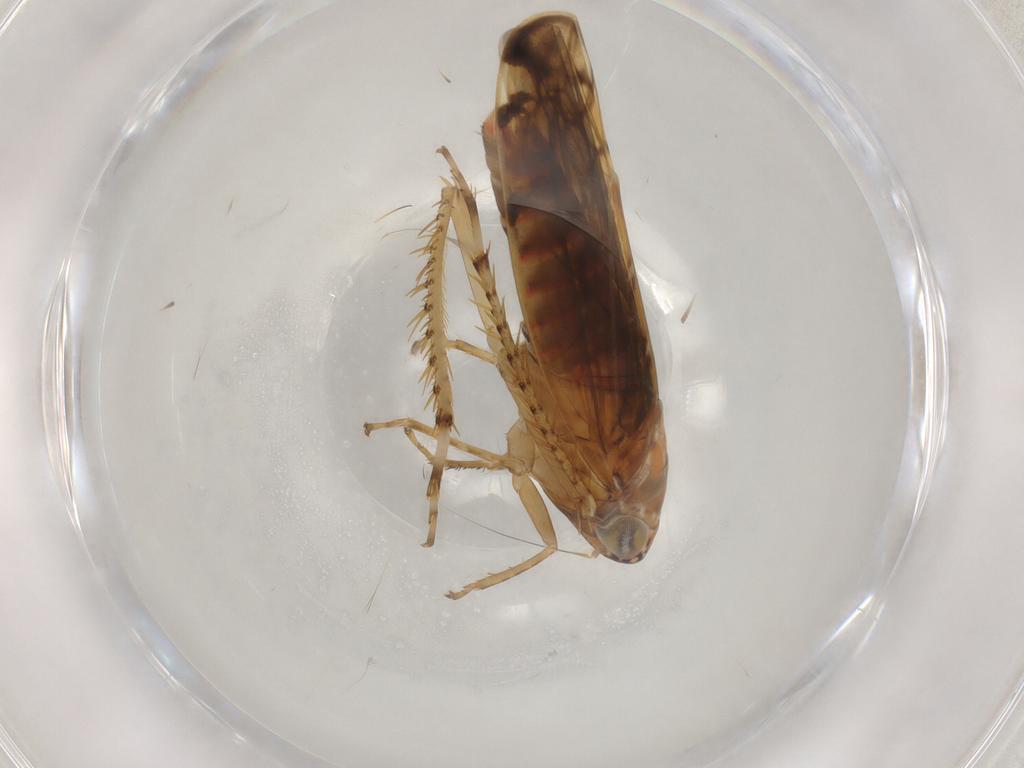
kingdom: Animalia
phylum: Arthropoda
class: Insecta
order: Hemiptera
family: Cicadellidae
